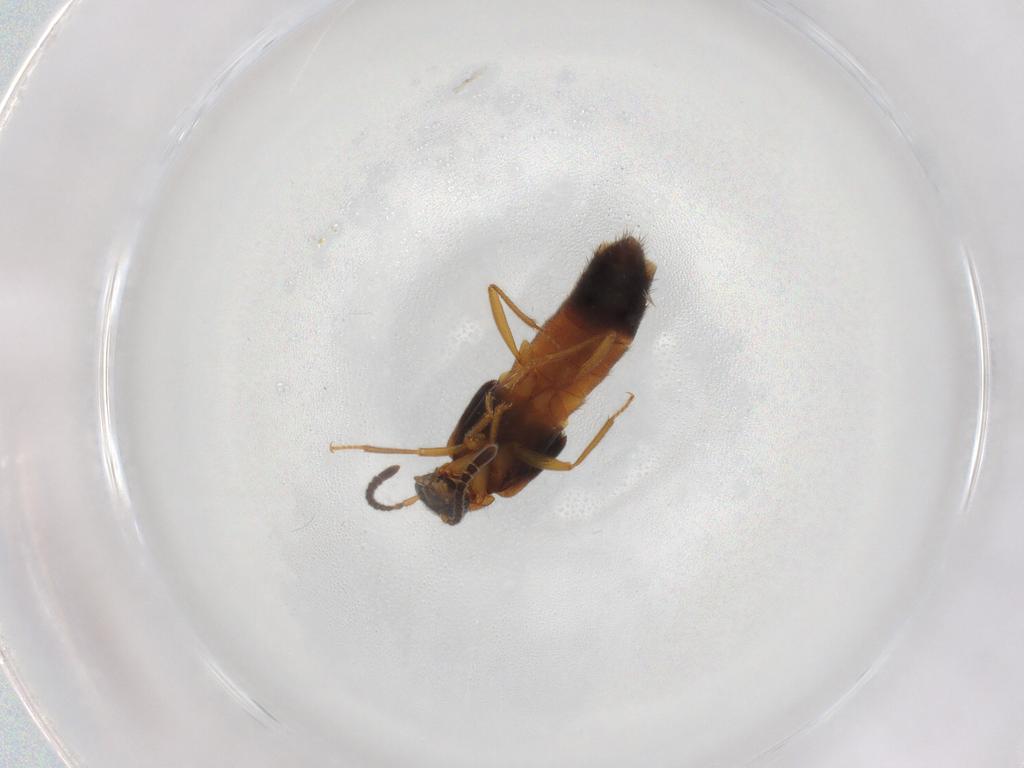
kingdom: Animalia
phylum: Arthropoda
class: Insecta
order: Coleoptera
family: Staphylinidae
